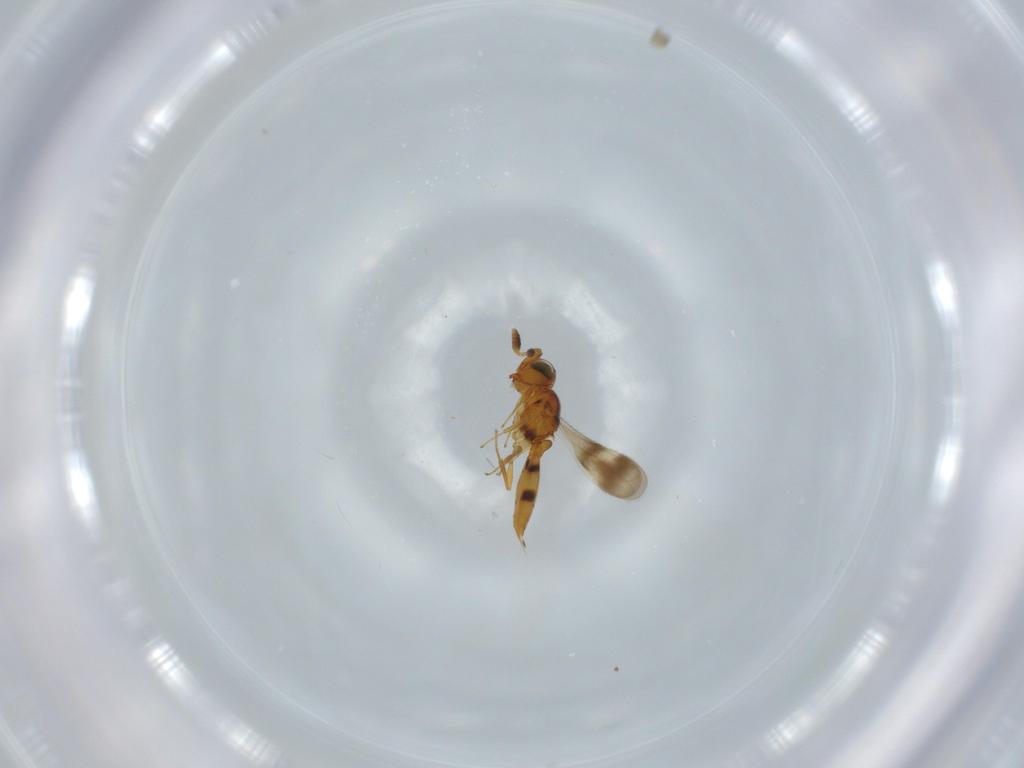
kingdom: Animalia
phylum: Arthropoda
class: Insecta
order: Hymenoptera
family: Scelionidae
